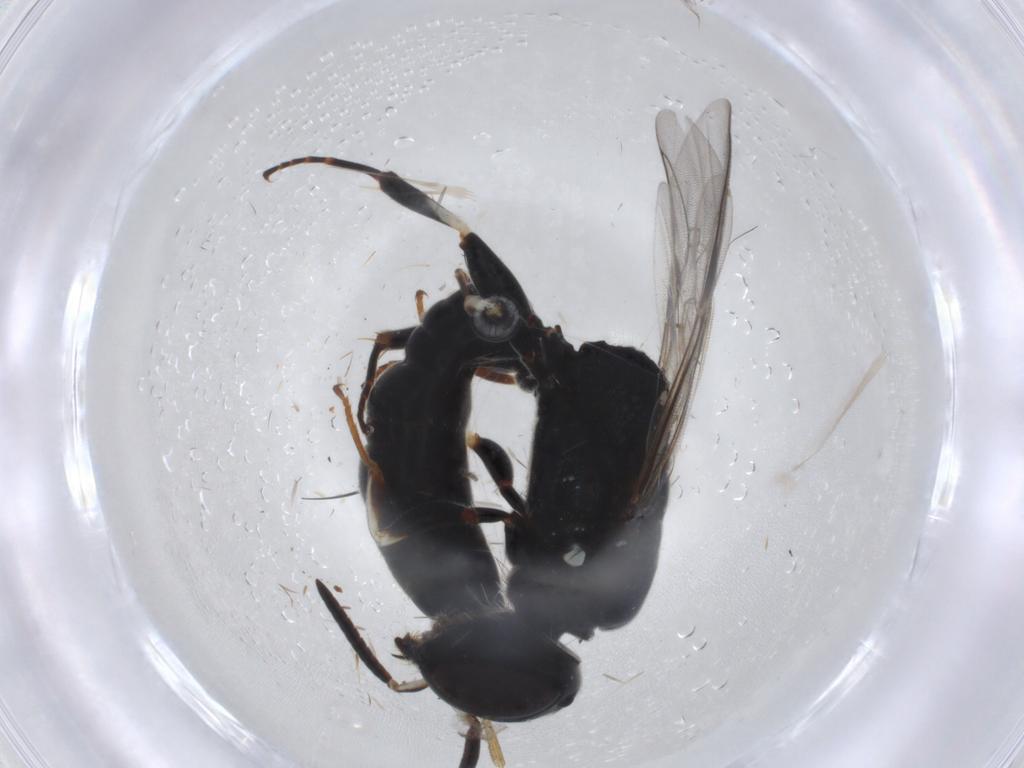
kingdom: Animalia
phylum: Arthropoda
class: Insecta
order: Hymenoptera
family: Pemphredonidae
